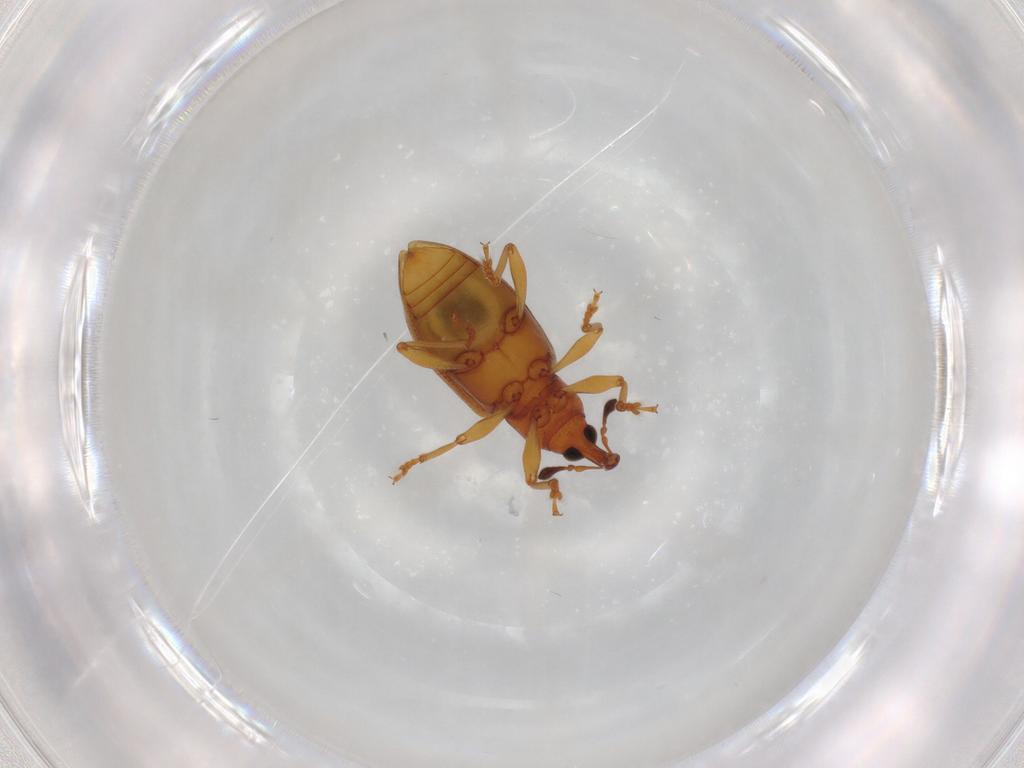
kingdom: Animalia
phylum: Arthropoda
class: Insecta
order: Coleoptera
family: Curculionidae
